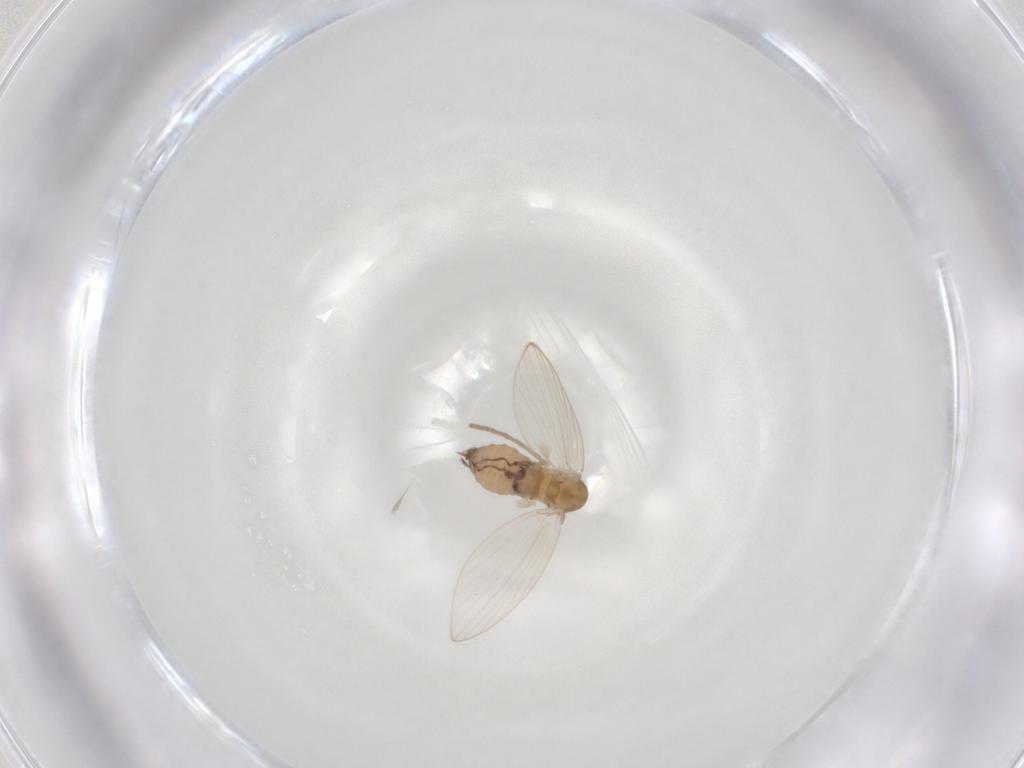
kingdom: Animalia
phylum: Arthropoda
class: Insecta
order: Diptera
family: Psychodidae
